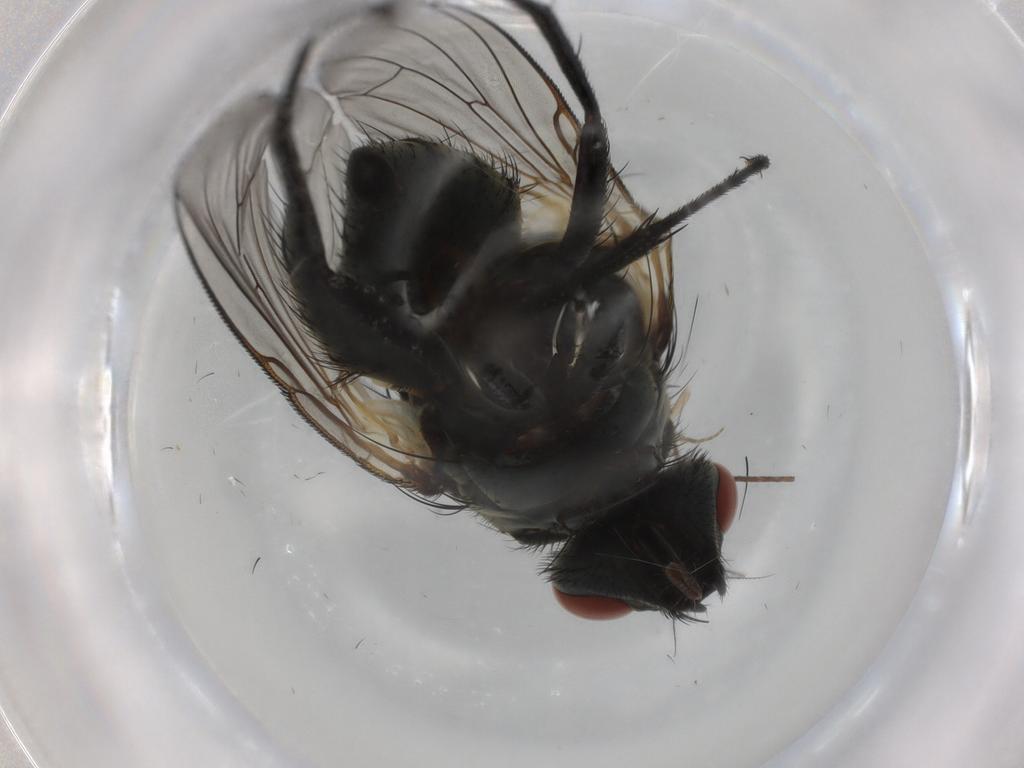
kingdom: Animalia
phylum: Arthropoda
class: Insecta
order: Diptera
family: Muscidae
